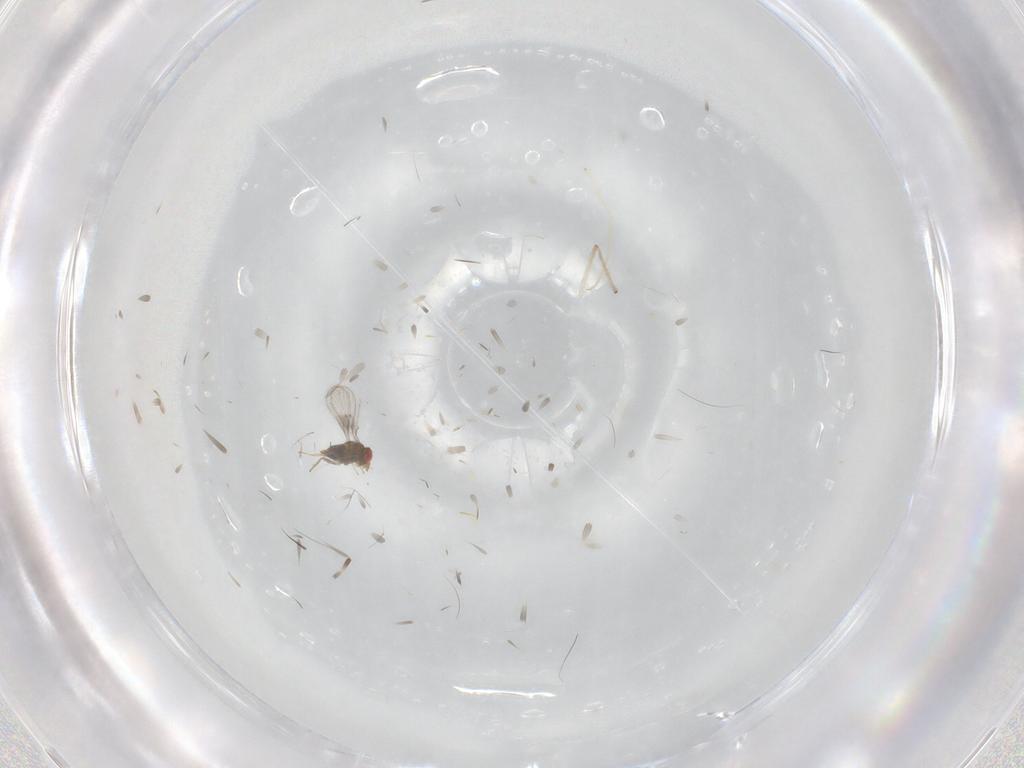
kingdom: Animalia
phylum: Arthropoda
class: Insecta
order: Hymenoptera
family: Trichogrammatidae
